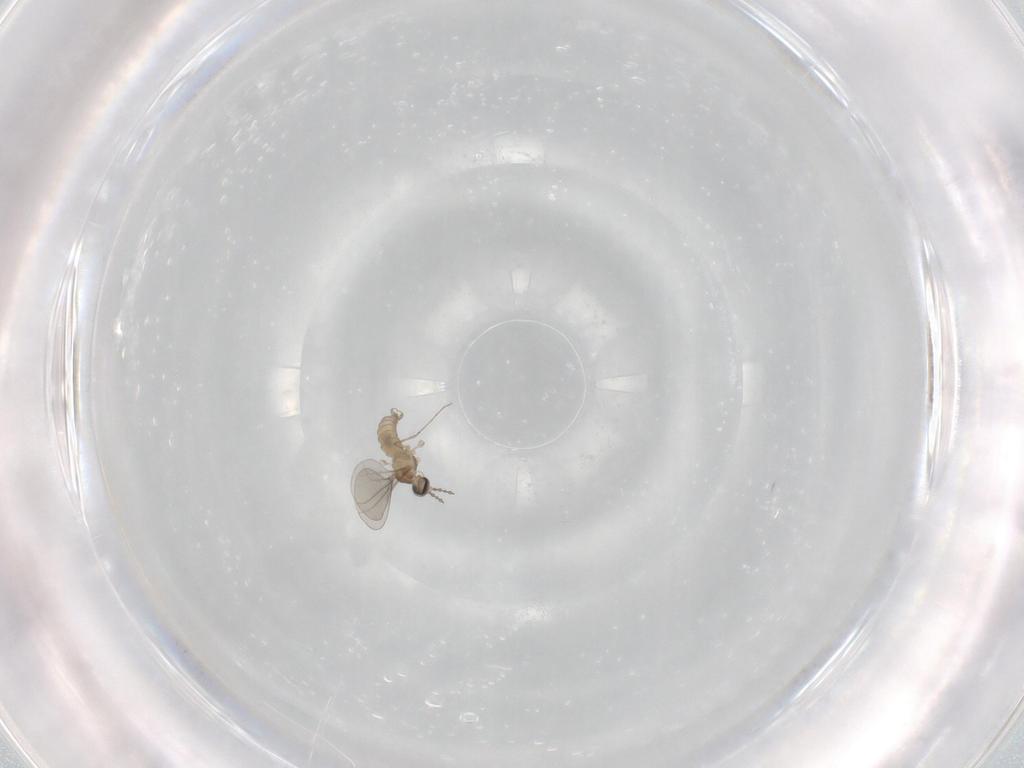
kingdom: Animalia
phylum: Arthropoda
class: Insecta
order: Diptera
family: Cecidomyiidae
